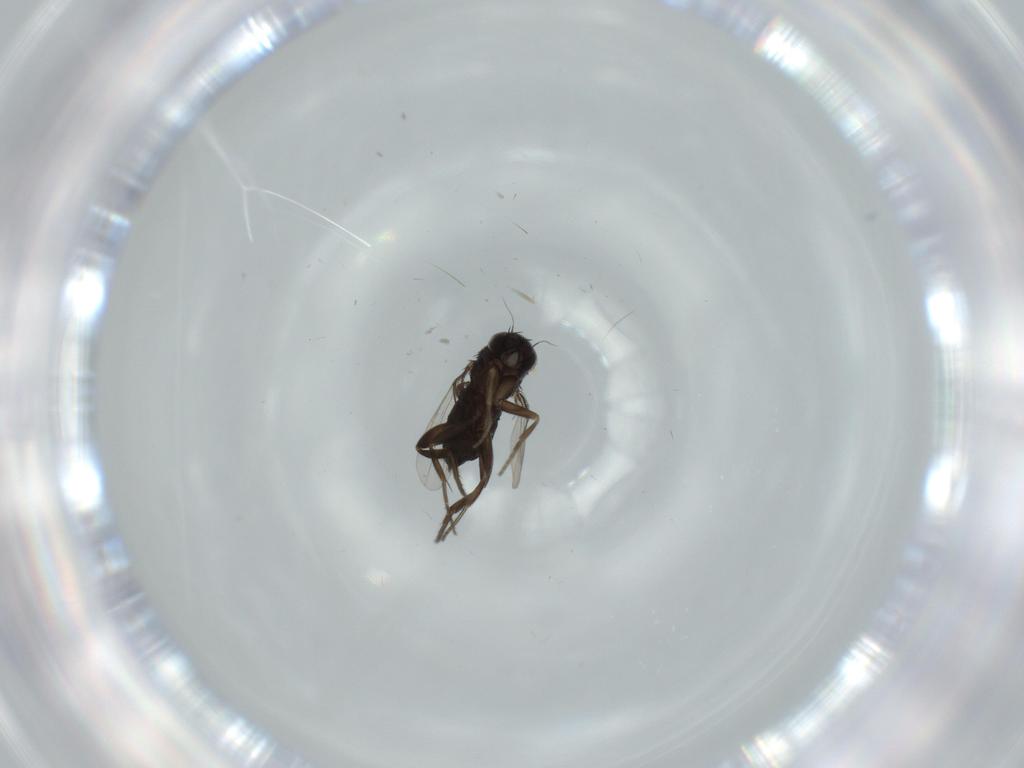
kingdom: Animalia
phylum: Arthropoda
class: Insecta
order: Diptera
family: Phoridae
